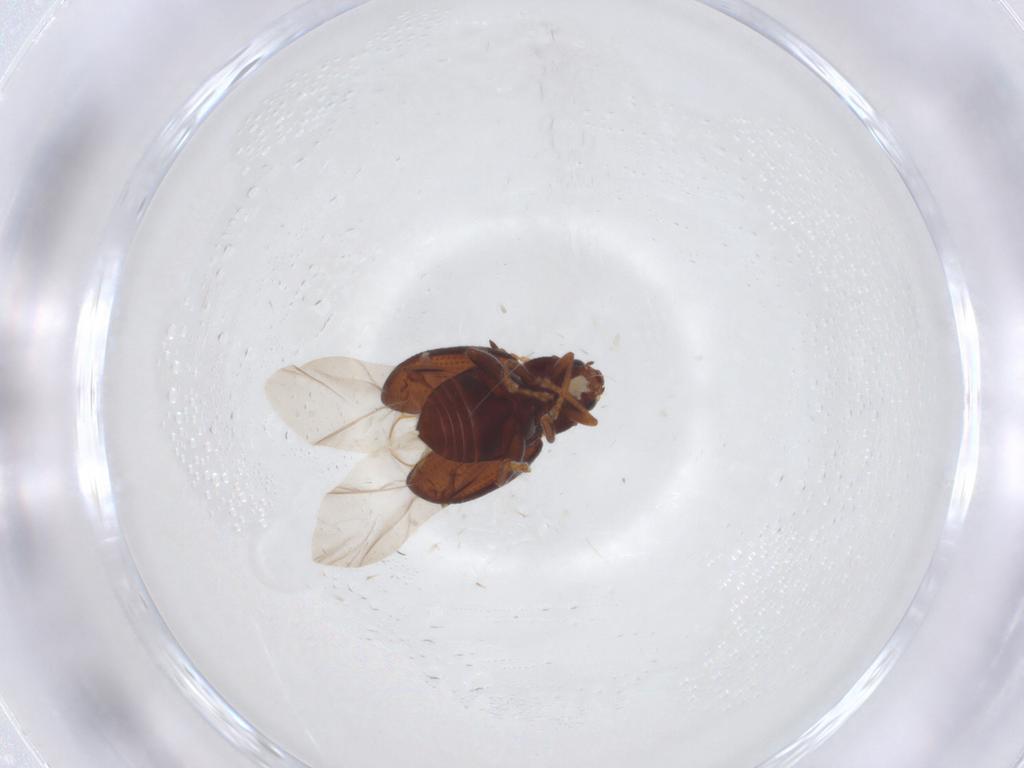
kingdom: Animalia
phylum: Arthropoda
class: Insecta
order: Coleoptera
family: Chrysomelidae
